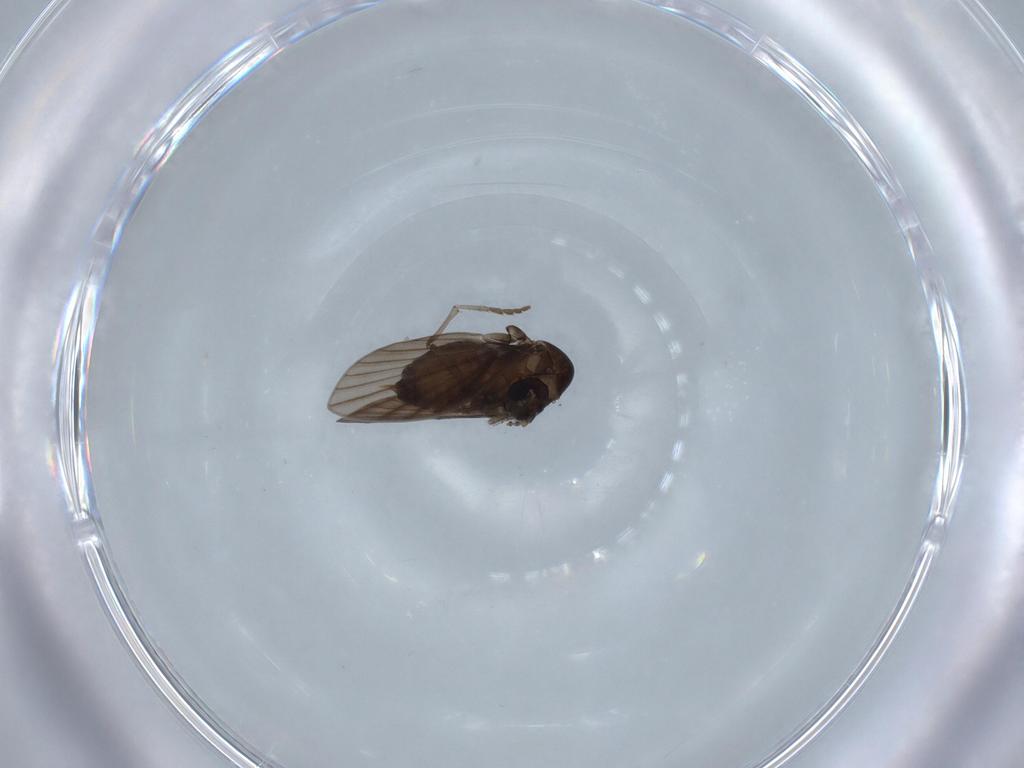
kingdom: Animalia
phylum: Arthropoda
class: Insecta
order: Diptera
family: Psychodidae
